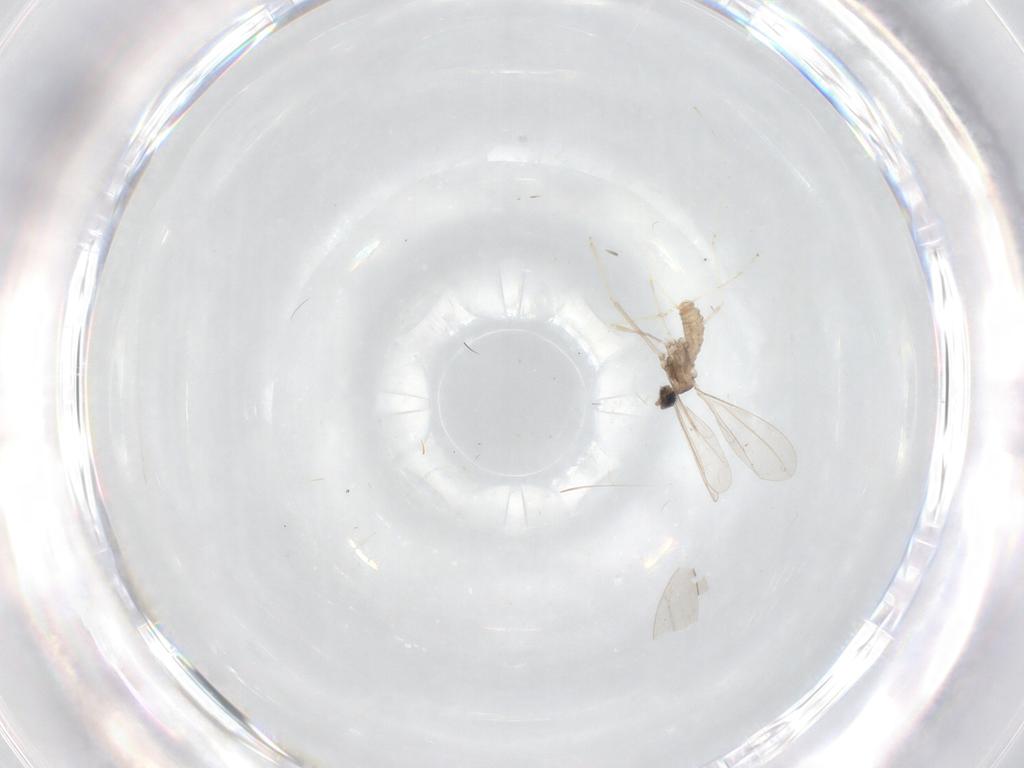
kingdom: Animalia
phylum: Arthropoda
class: Insecta
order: Diptera
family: Cecidomyiidae
